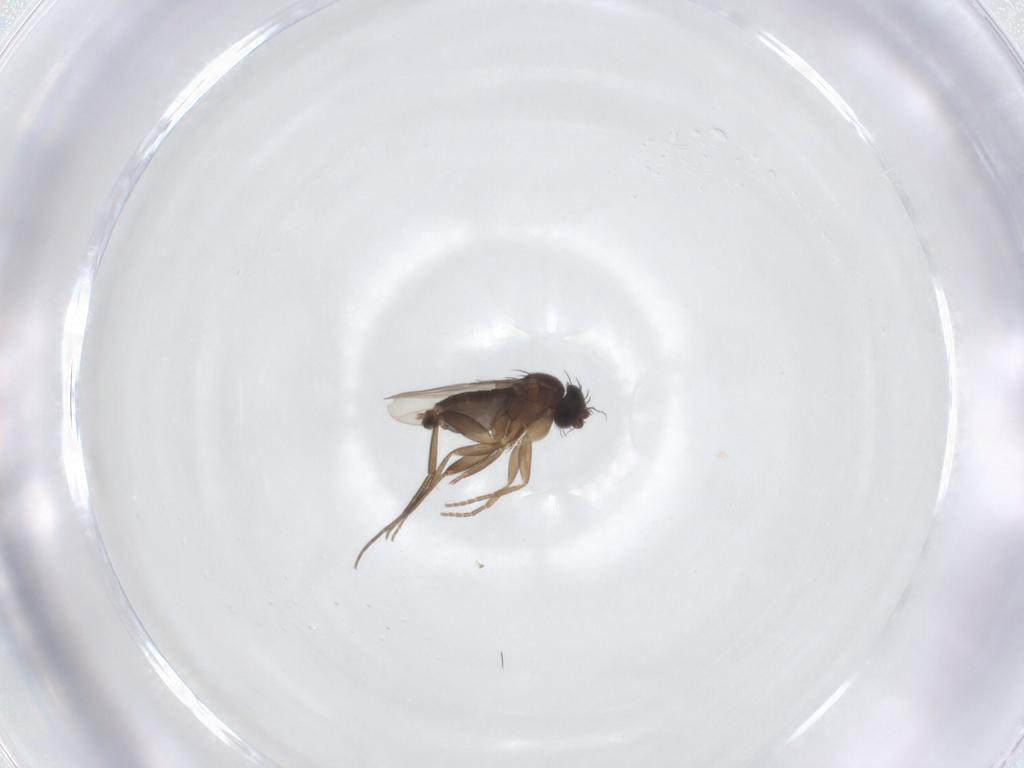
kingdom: Animalia
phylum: Arthropoda
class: Insecta
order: Diptera
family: Phoridae
